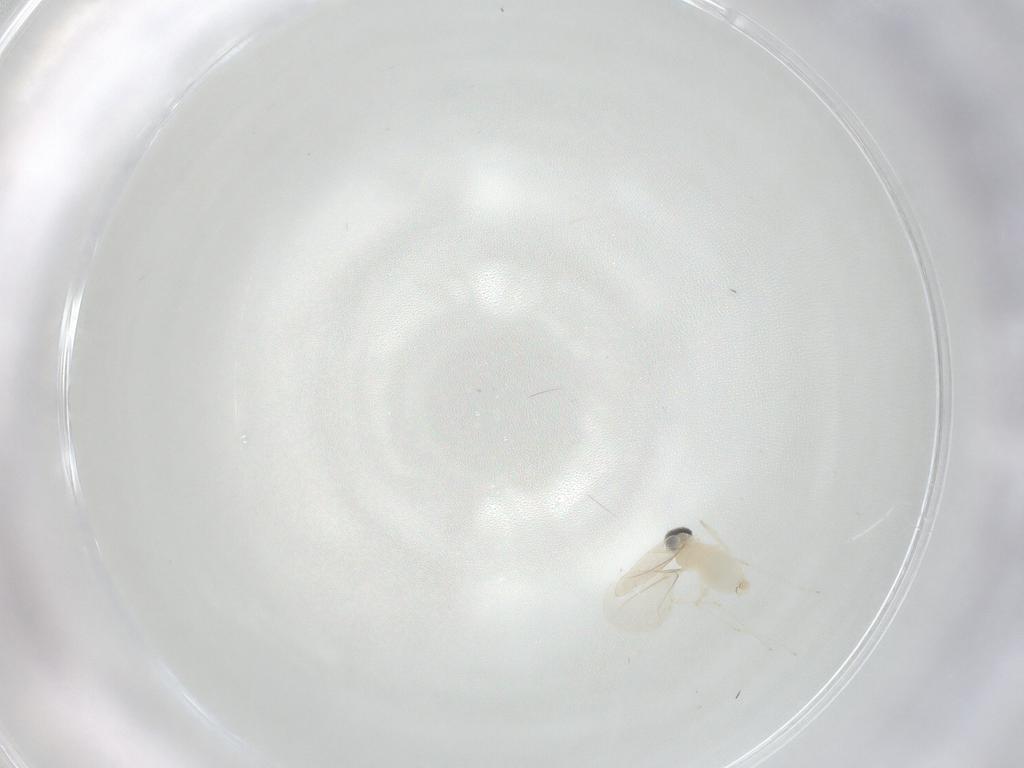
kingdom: Animalia
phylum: Arthropoda
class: Insecta
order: Diptera
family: Cecidomyiidae
